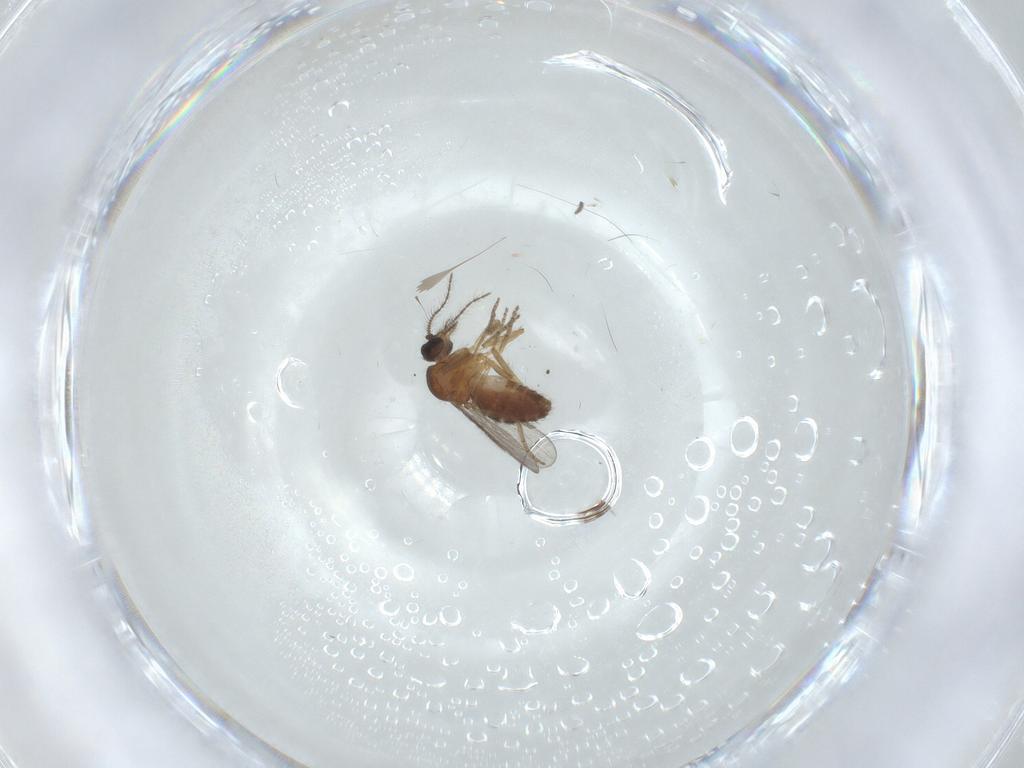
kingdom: Animalia
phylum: Arthropoda
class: Insecta
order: Diptera
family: Ceratopogonidae
